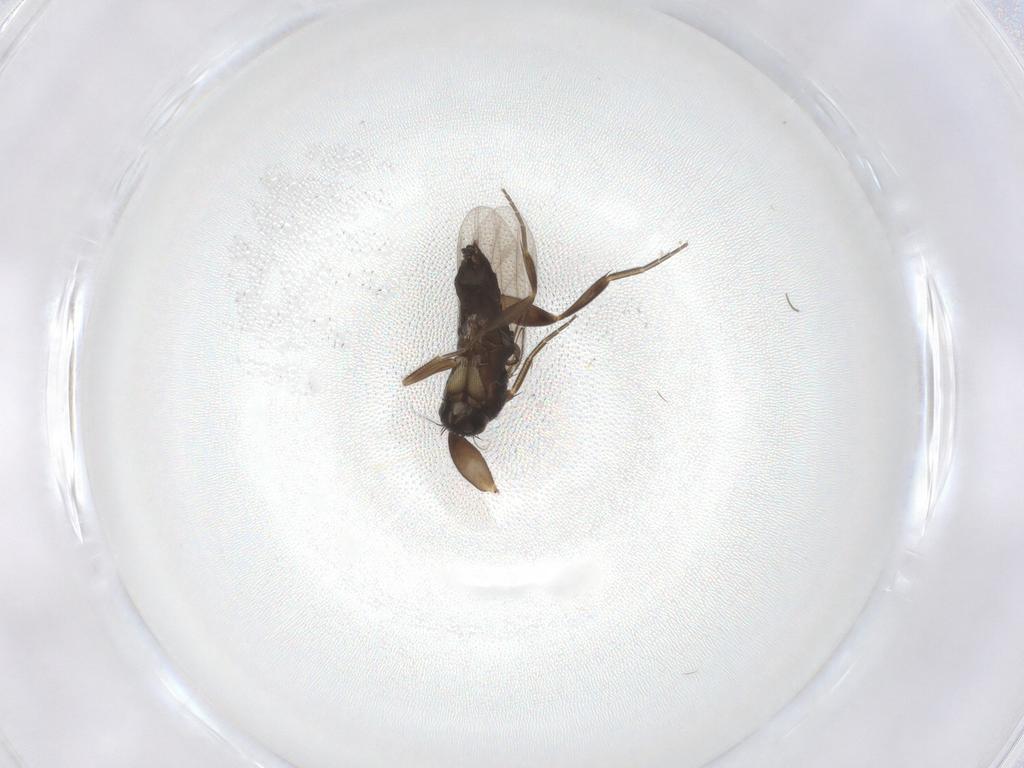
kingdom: Animalia
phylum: Arthropoda
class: Insecta
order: Diptera
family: Phoridae
